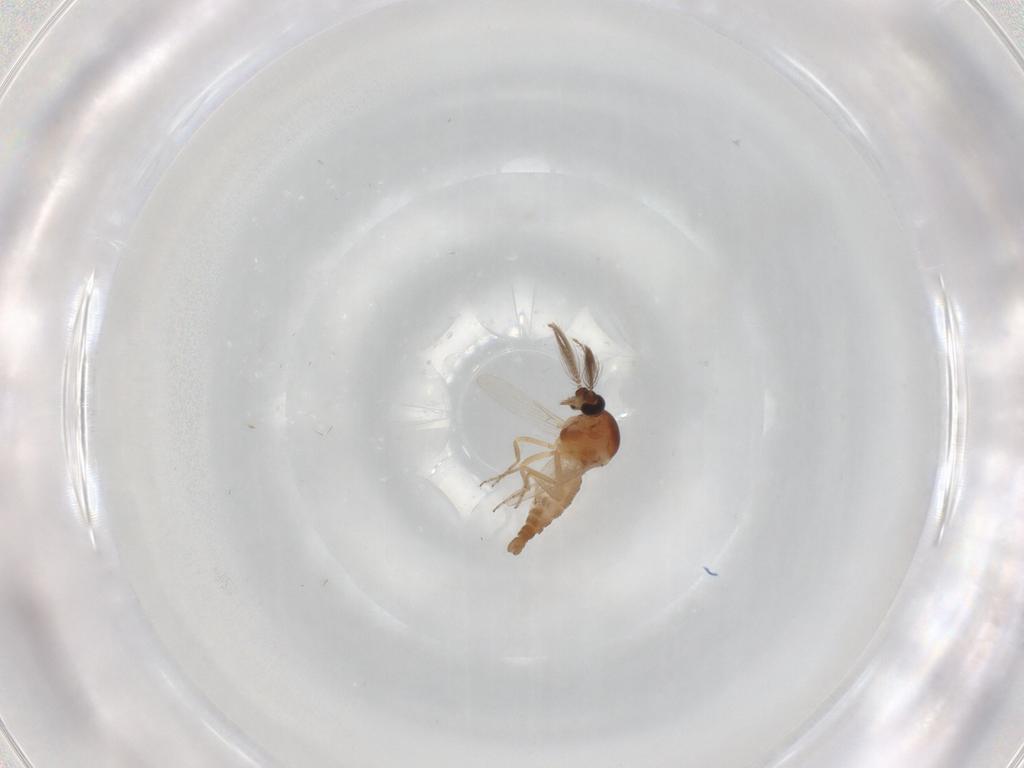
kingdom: Animalia
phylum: Arthropoda
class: Insecta
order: Diptera
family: Ceratopogonidae
